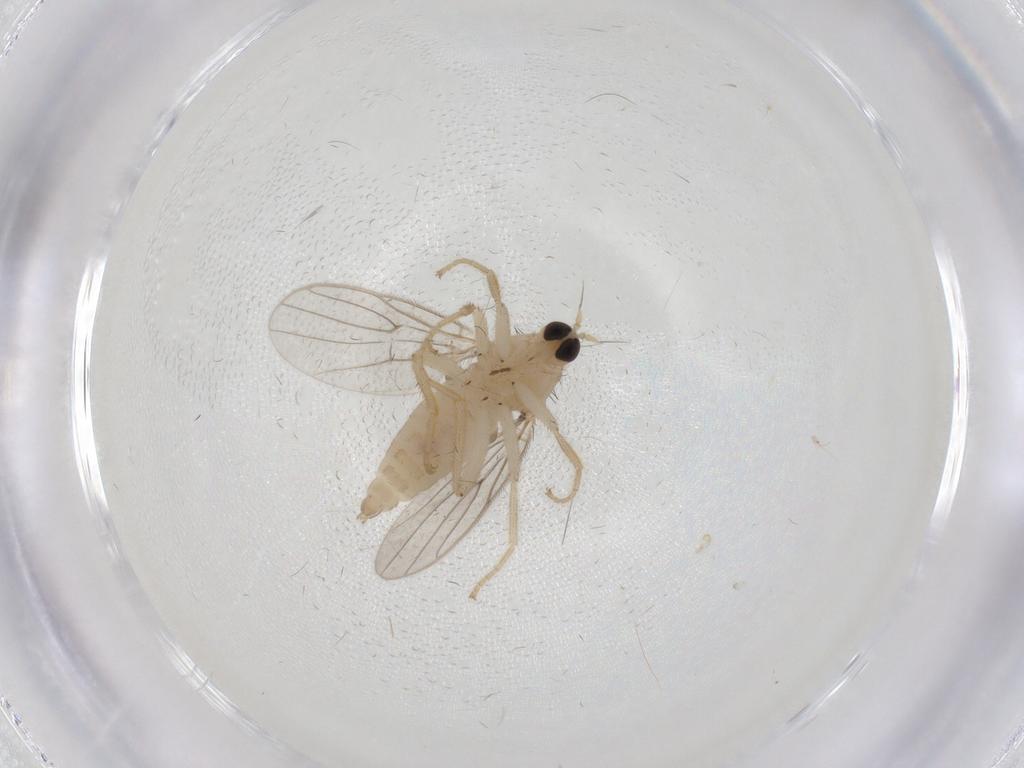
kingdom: Animalia
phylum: Arthropoda
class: Insecta
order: Diptera
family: Hybotidae
